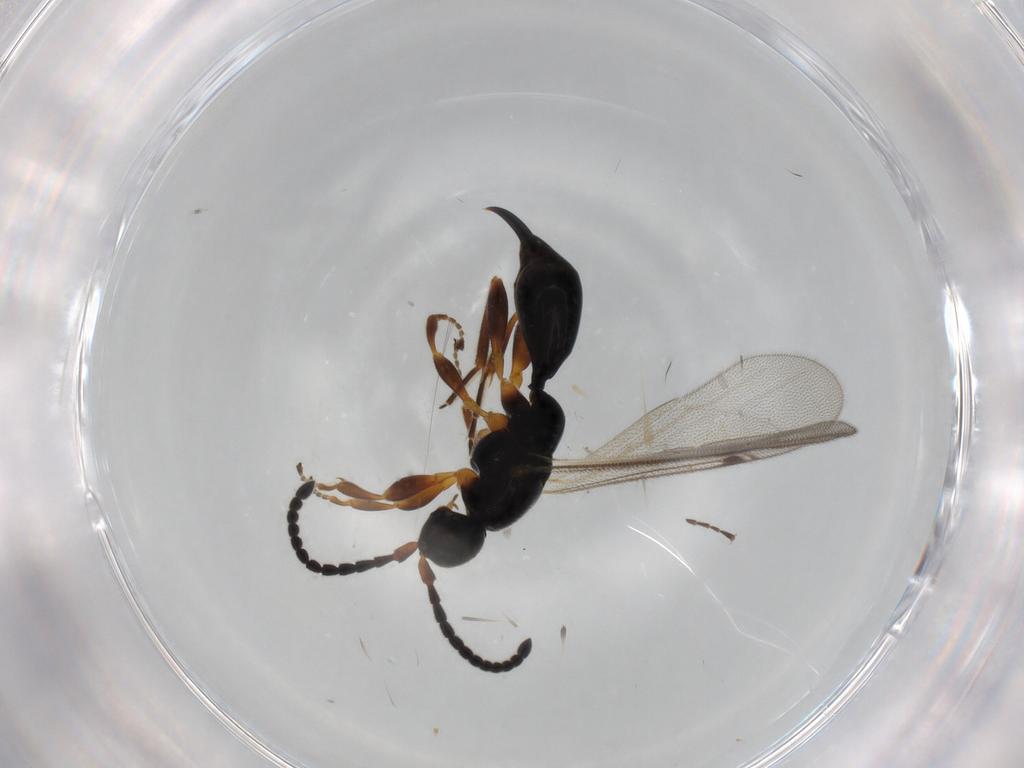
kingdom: Animalia
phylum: Arthropoda
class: Insecta
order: Hymenoptera
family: Proctotrupidae
